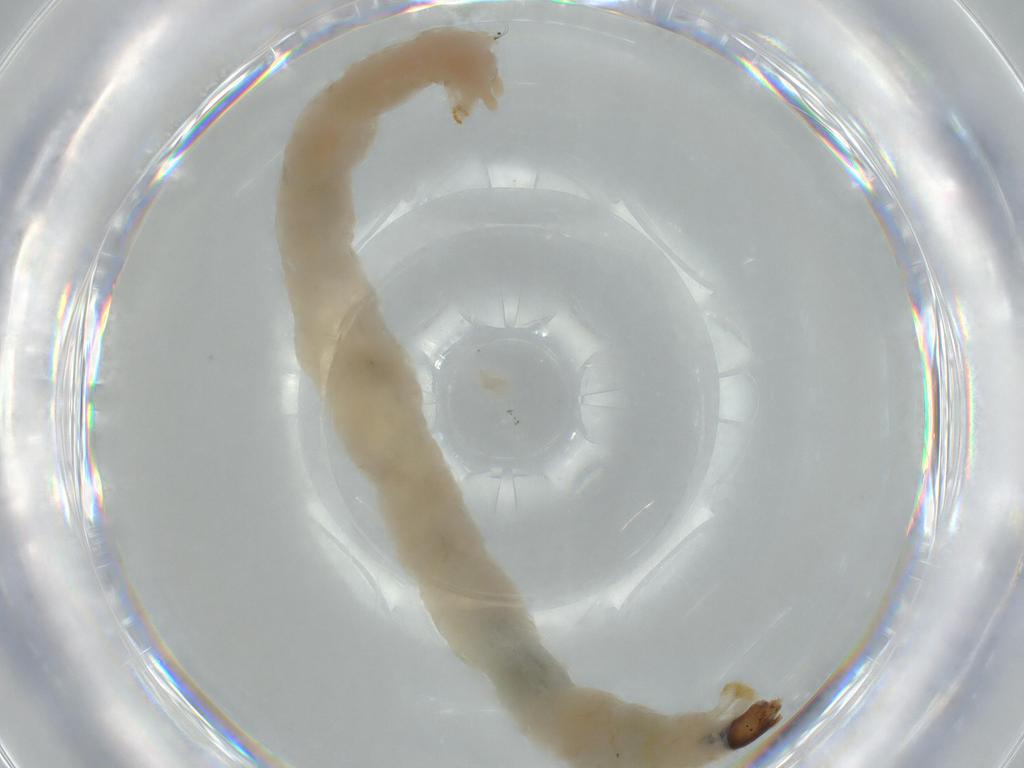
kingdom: Animalia
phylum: Arthropoda
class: Insecta
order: Diptera
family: Chironomidae
